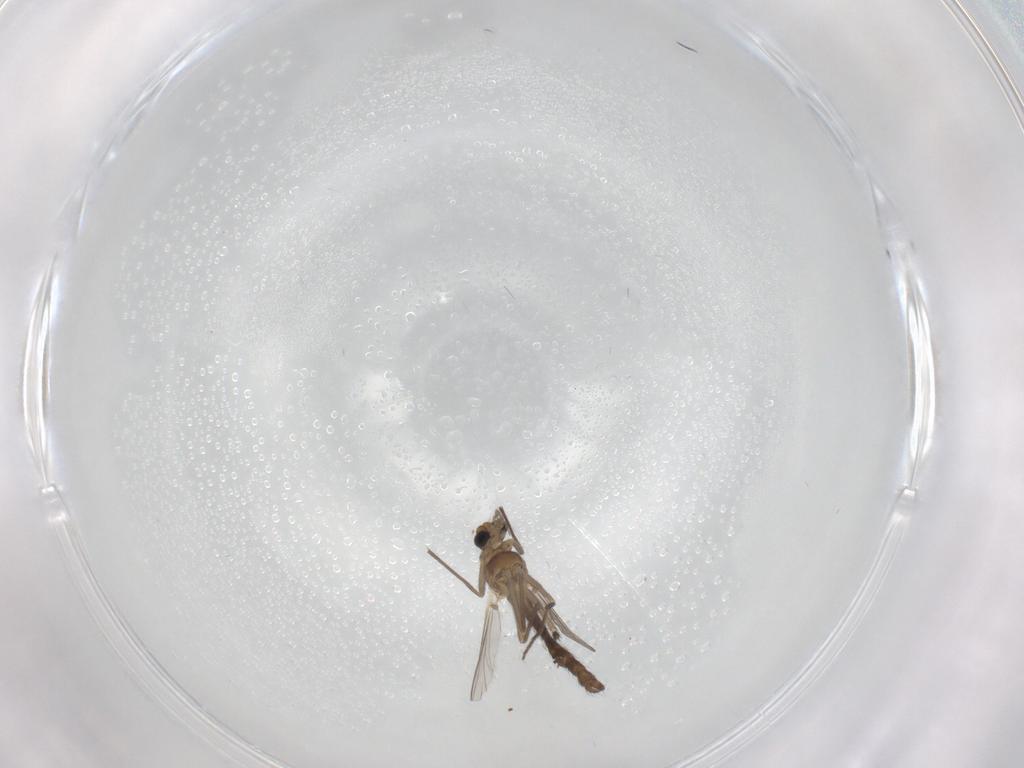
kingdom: Animalia
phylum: Arthropoda
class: Insecta
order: Diptera
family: Chironomidae
